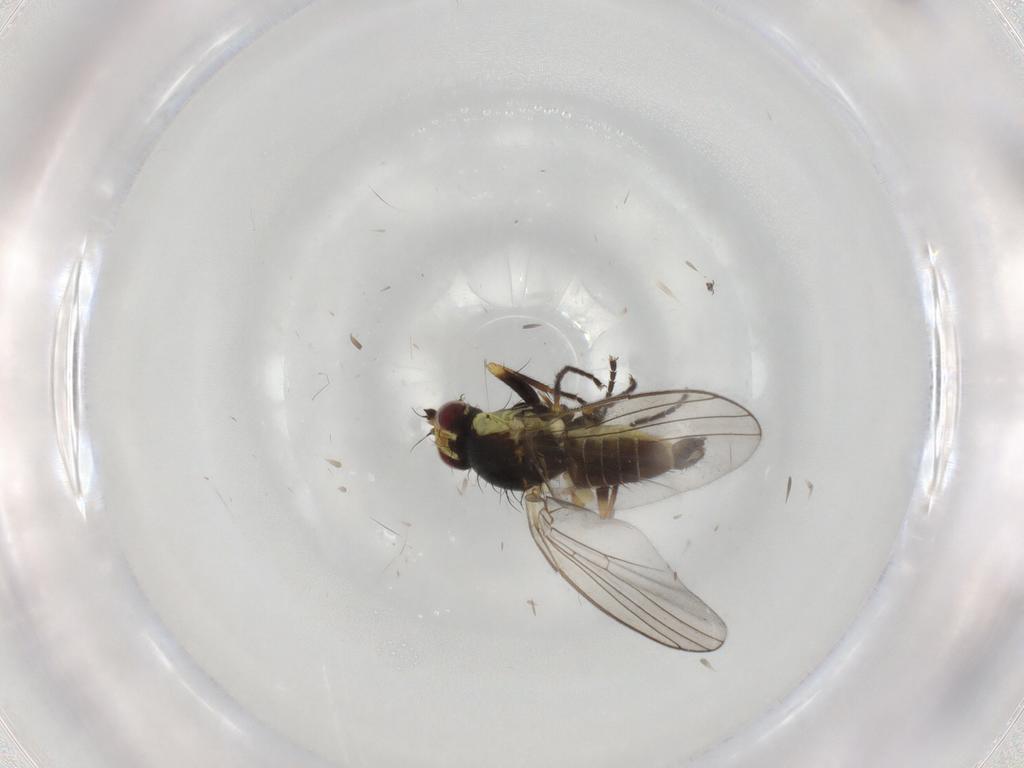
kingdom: Animalia
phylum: Arthropoda
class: Insecta
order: Diptera
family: Agromyzidae
